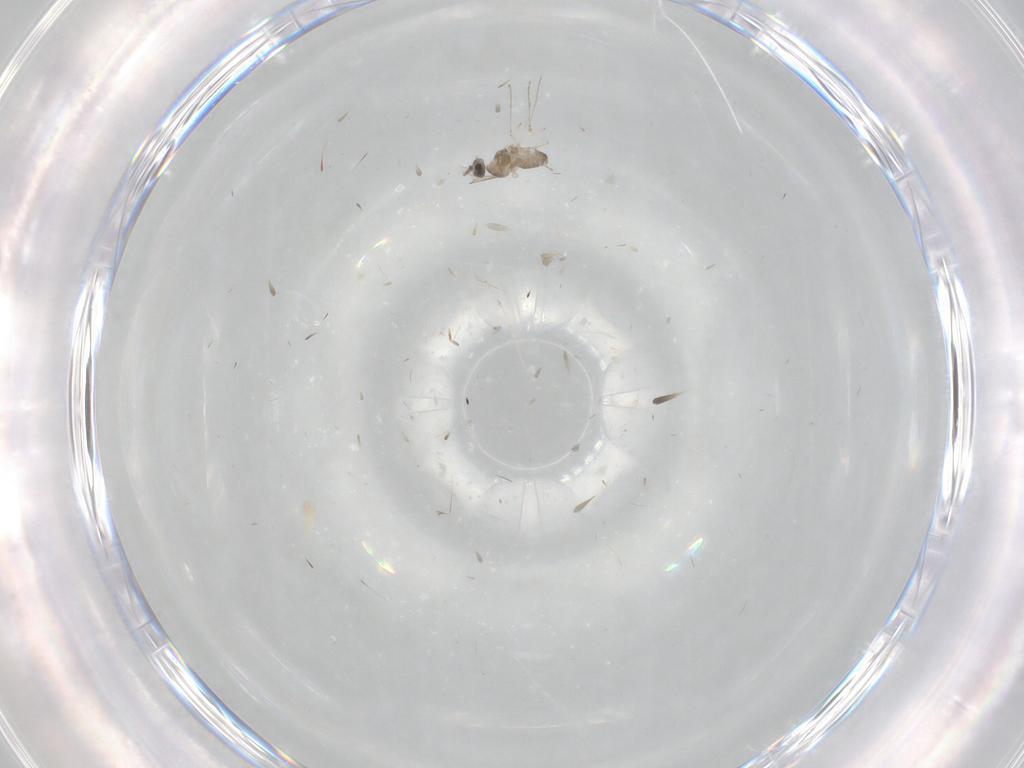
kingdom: Animalia
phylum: Arthropoda
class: Insecta
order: Diptera
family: Cecidomyiidae
